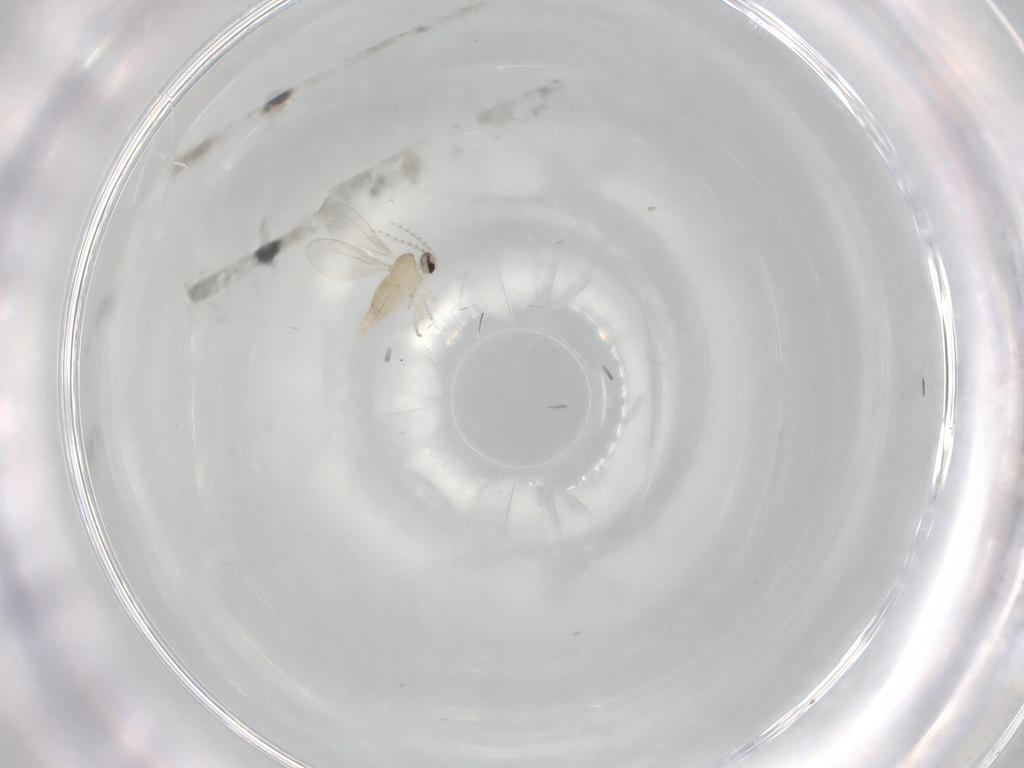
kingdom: Animalia
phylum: Arthropoda
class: Insecta
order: Diptera
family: Cecidomyiidae
